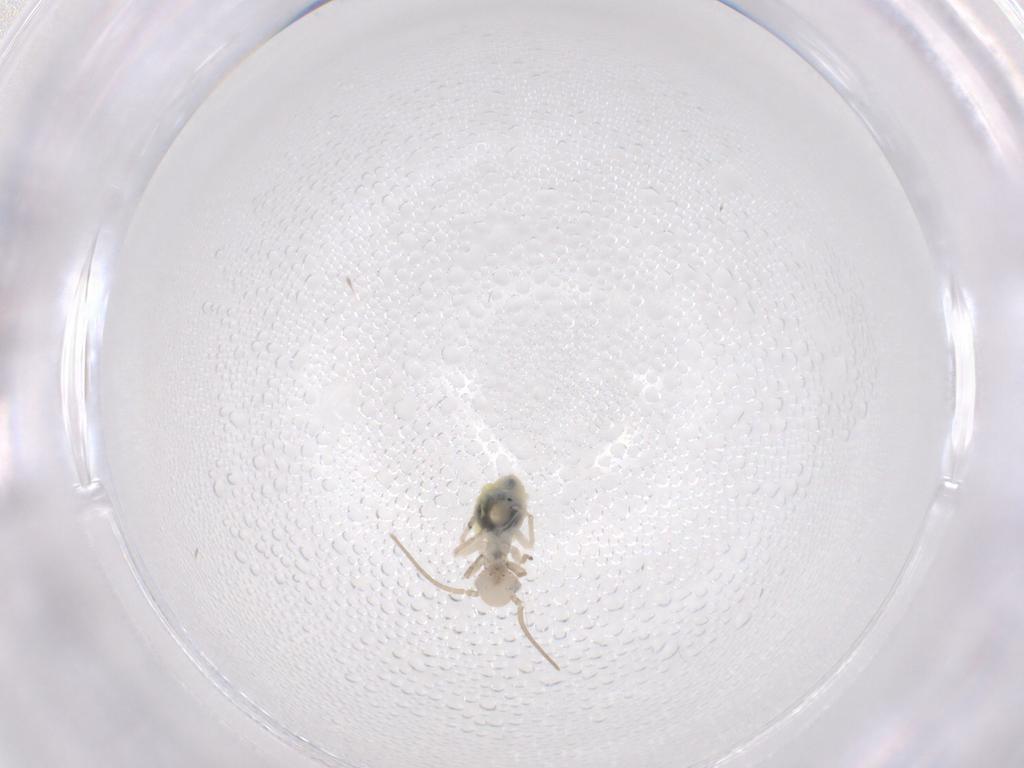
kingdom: Animalia
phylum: Arthropoda
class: Insecta
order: Psocodea
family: Caeciliusidae
